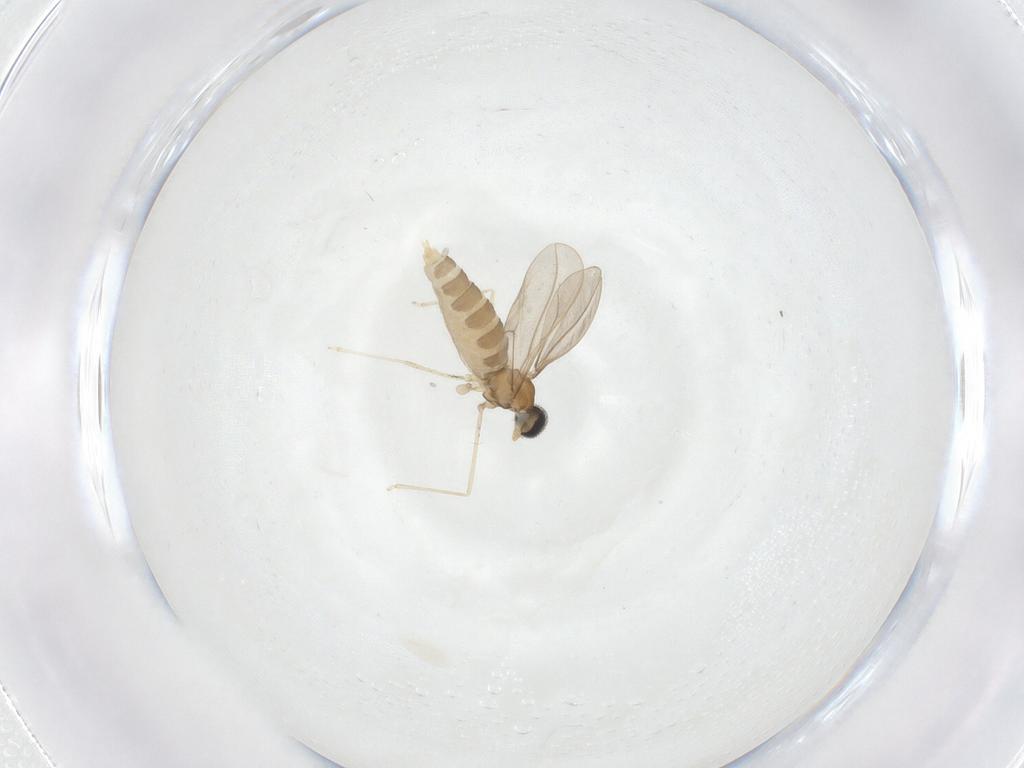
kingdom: Animalia
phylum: Arthropoda
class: Insecta
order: Diptera
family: Cecidomyiidae
